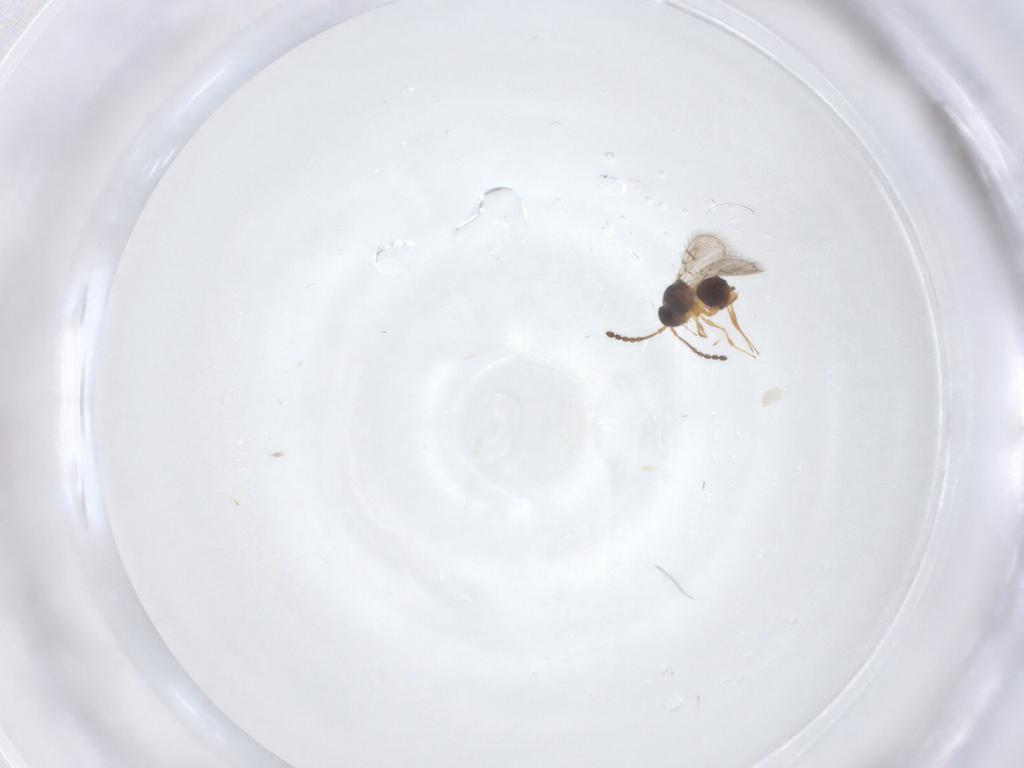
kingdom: Animalia
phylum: Arthropoda
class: Insecta
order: Hymenoptera
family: Figitidae
